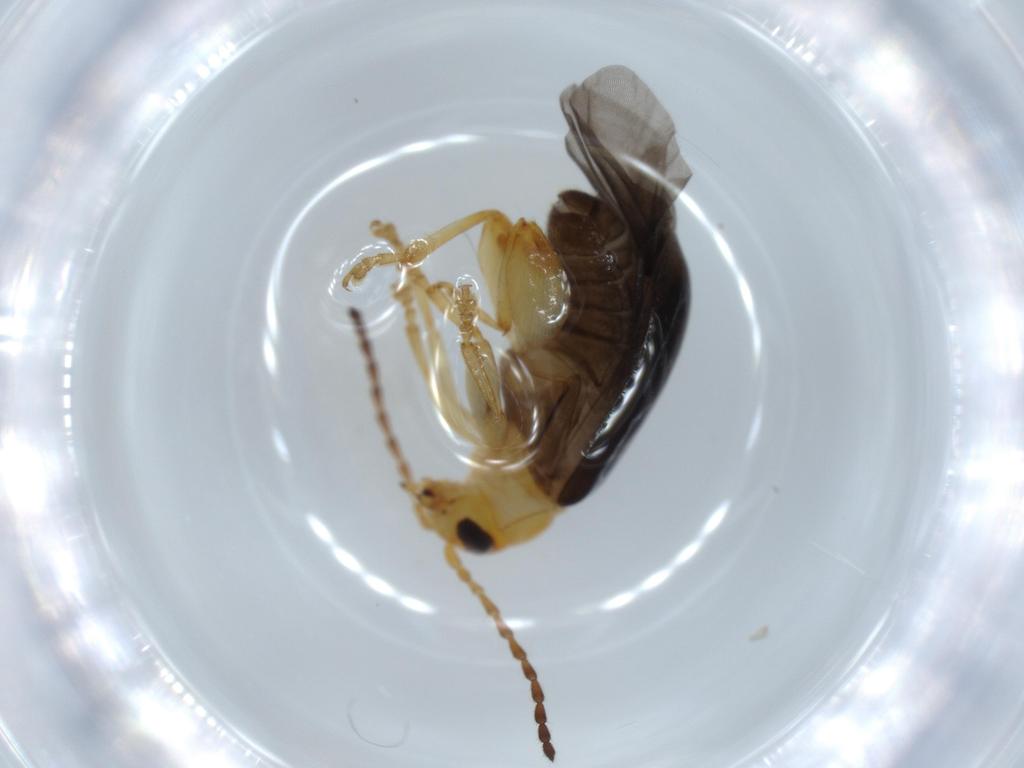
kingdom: Animalia
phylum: Arthropoda
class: Insecta
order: Coleoptera
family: Chrysomelidae
